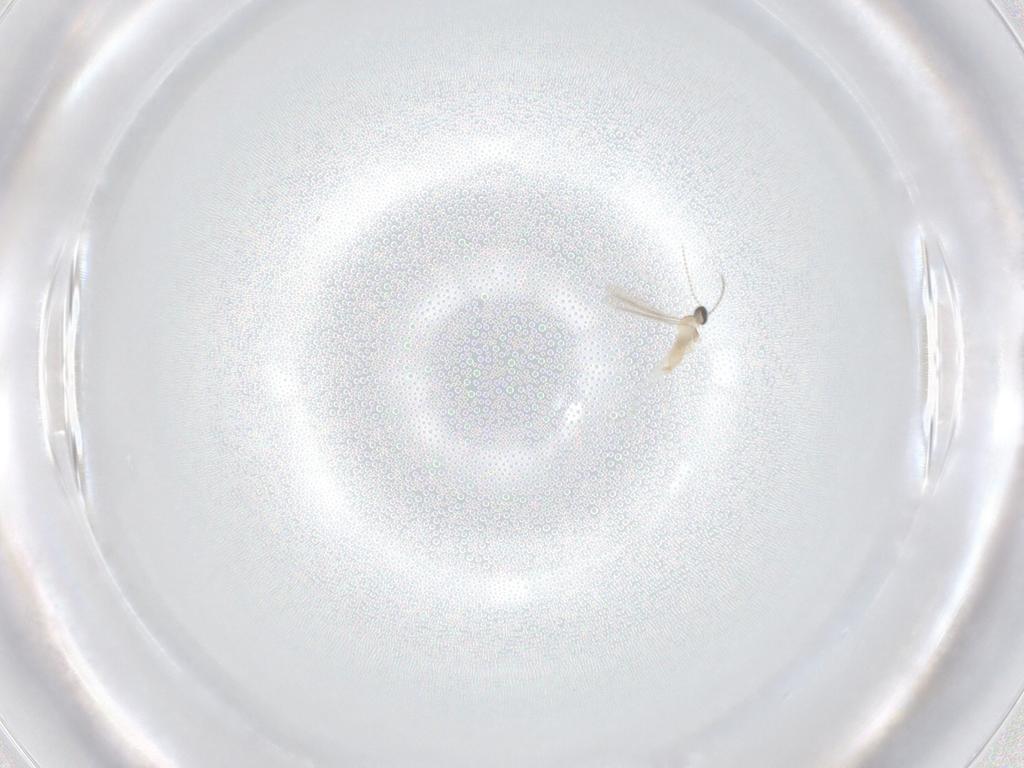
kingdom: Animalia
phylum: Arthropoda
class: Insecta
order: Diptera
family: Cecidomyiidae
